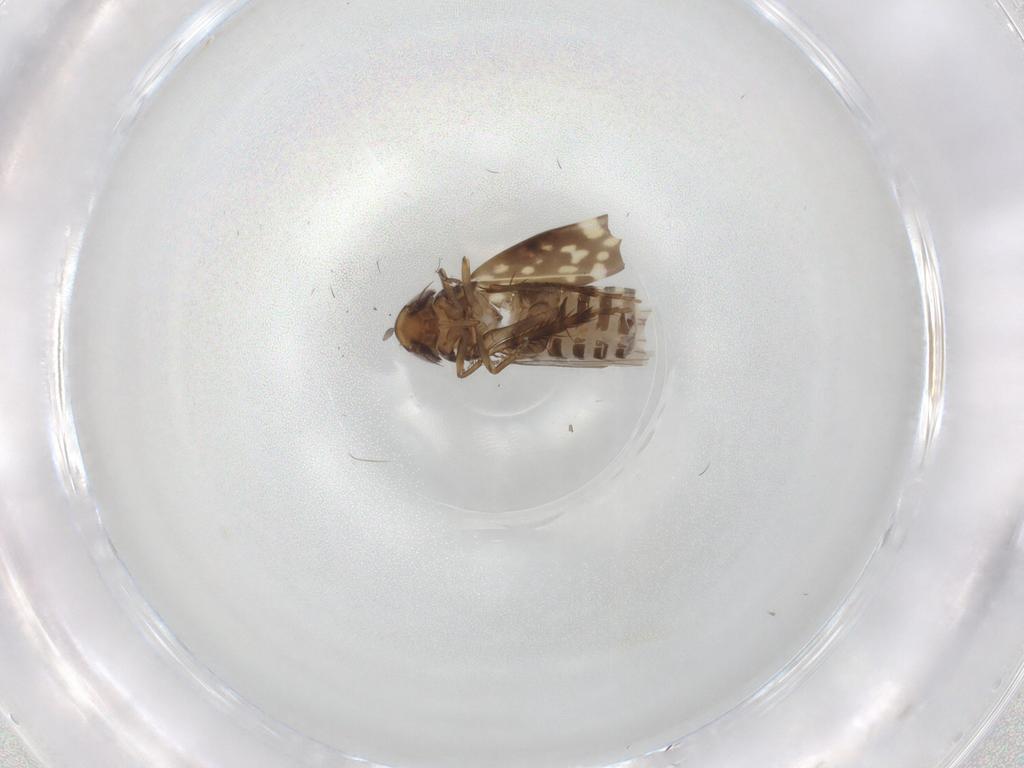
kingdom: Animalia
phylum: Arthropoda
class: Insecta
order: Hemiptera
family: Cicadellidae
